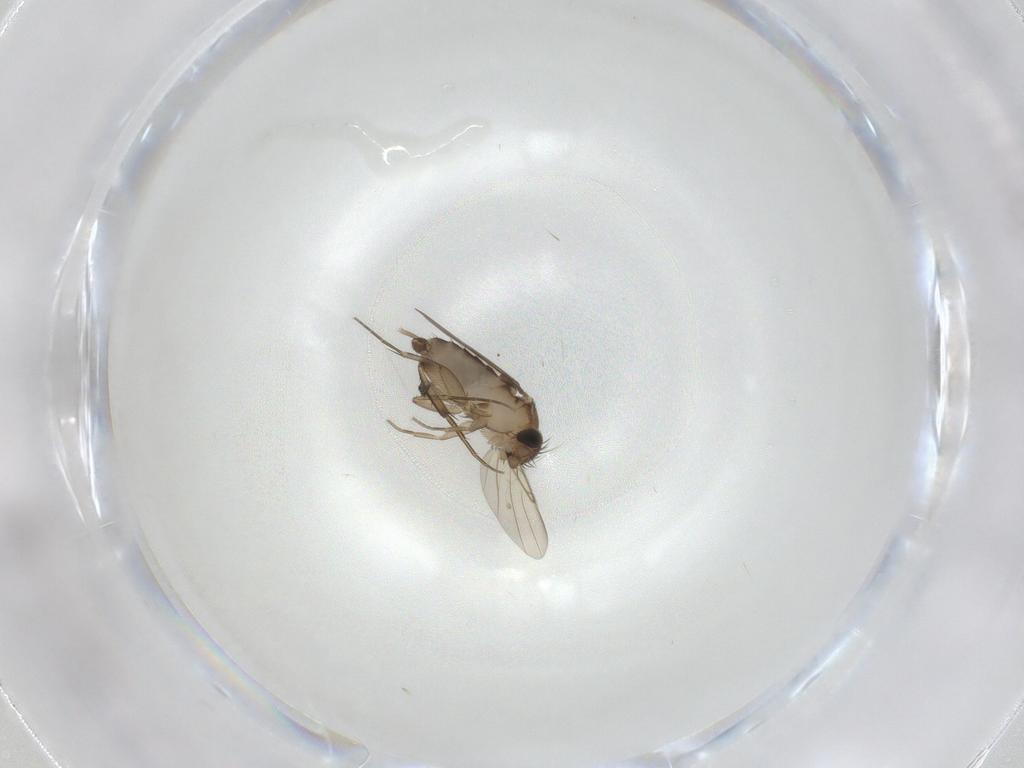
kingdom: Animalia
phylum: Arthropoda
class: Insecta
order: Diptera
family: Phoridae
